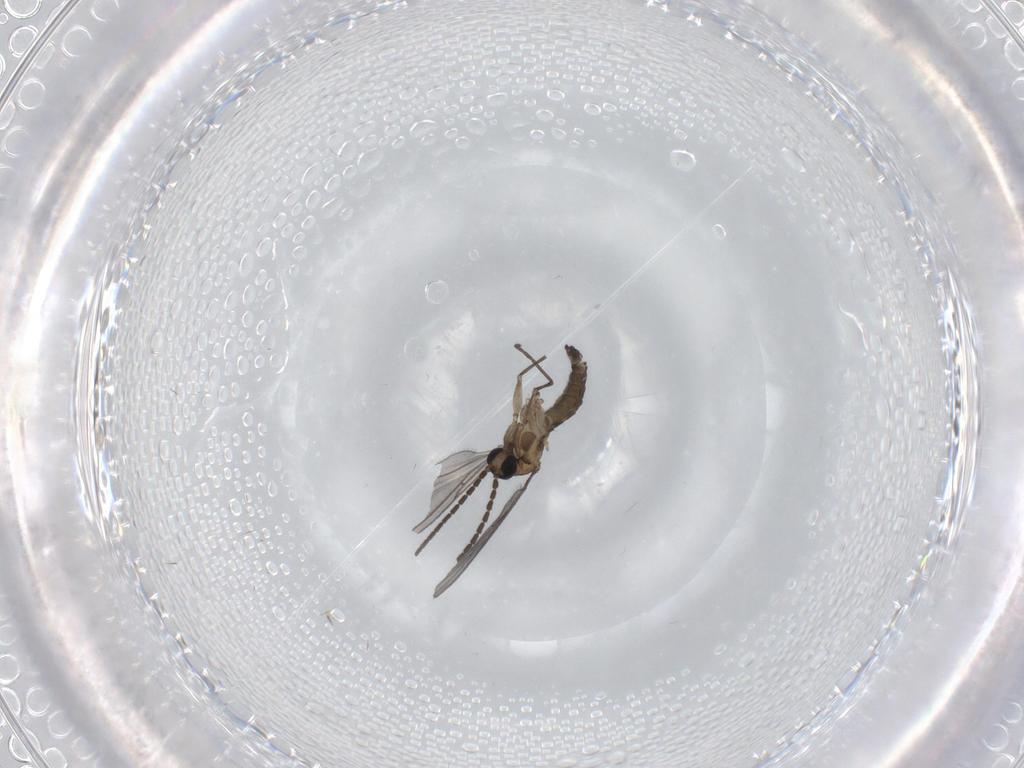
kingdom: Animalia
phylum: Arthropoda
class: Insecta
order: Diptera
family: Sciaridae
